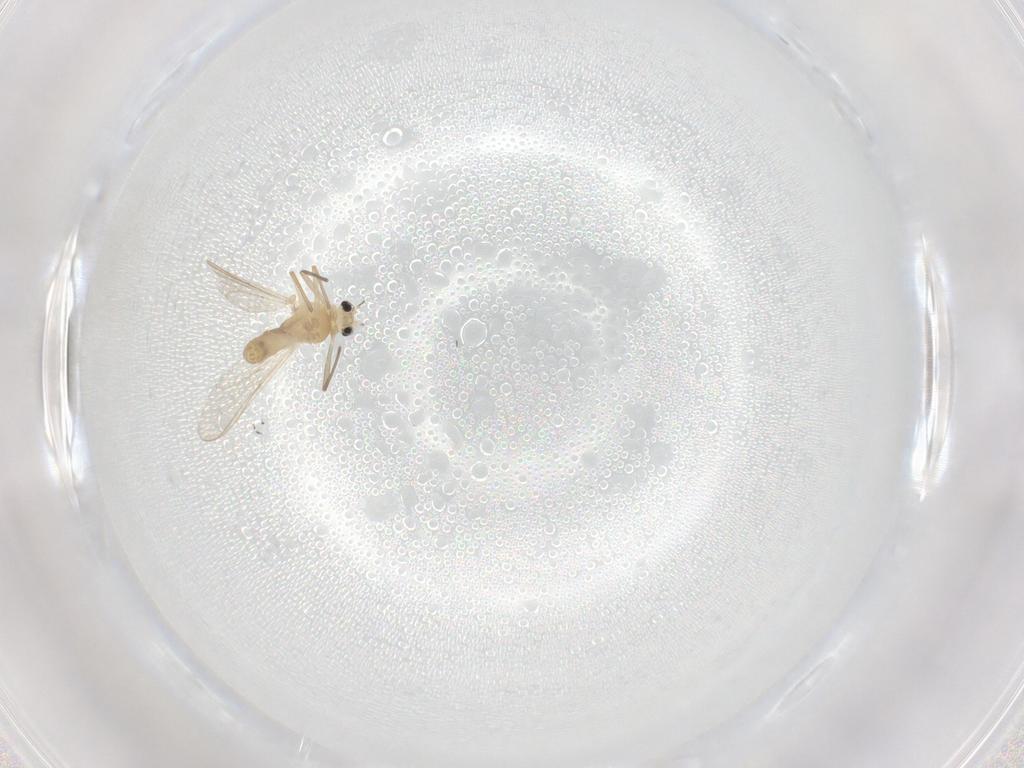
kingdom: Animalia
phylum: Arthropoda
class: Insecta
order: Diptera
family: Chironomidae
